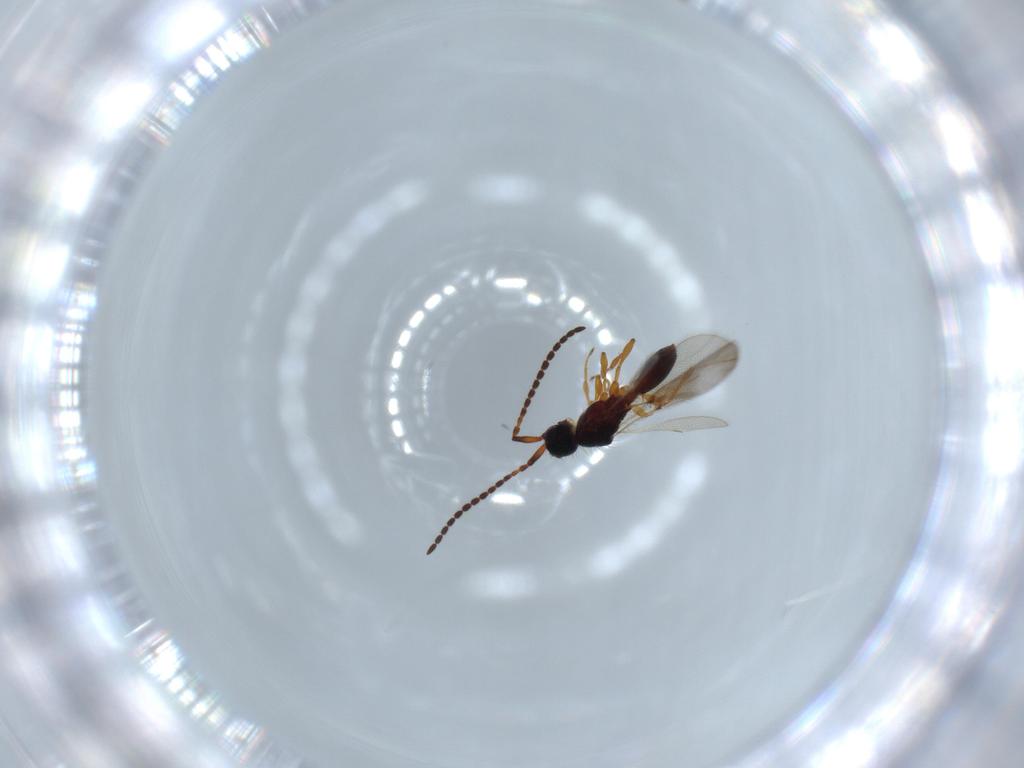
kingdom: Animalia
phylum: Arthropoda
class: Insecta
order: Hymenoptera
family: Diapriidae
